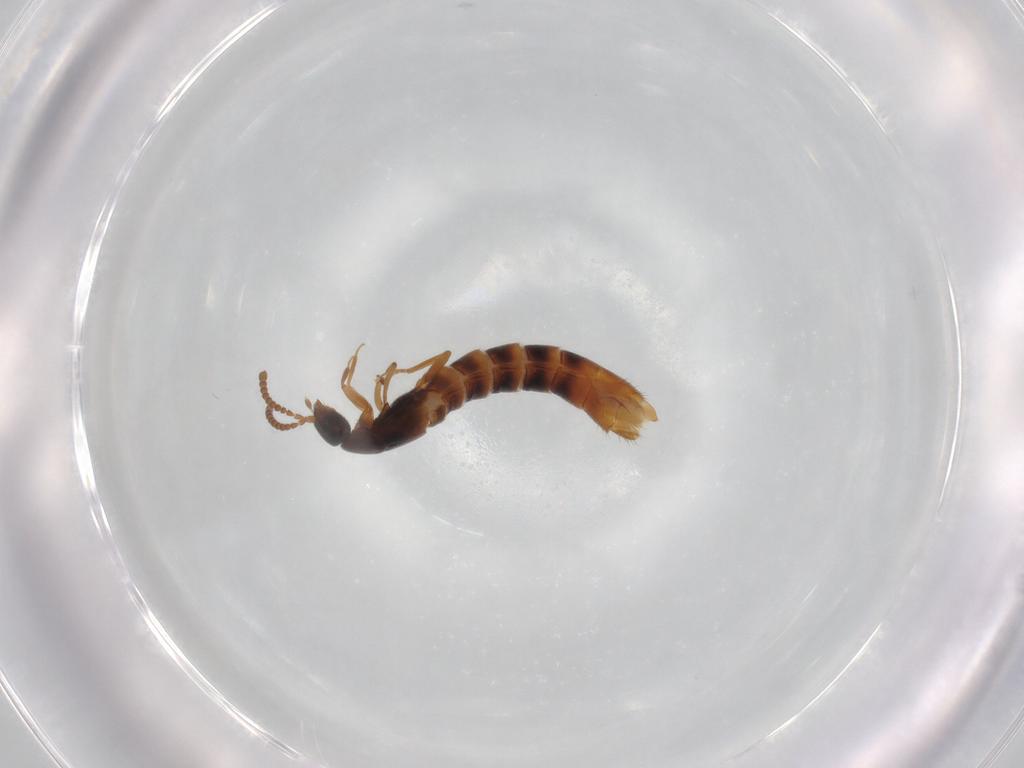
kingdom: Animalia
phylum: Arthropoda
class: Insecta
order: Coleoptera
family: Staphylinidae
